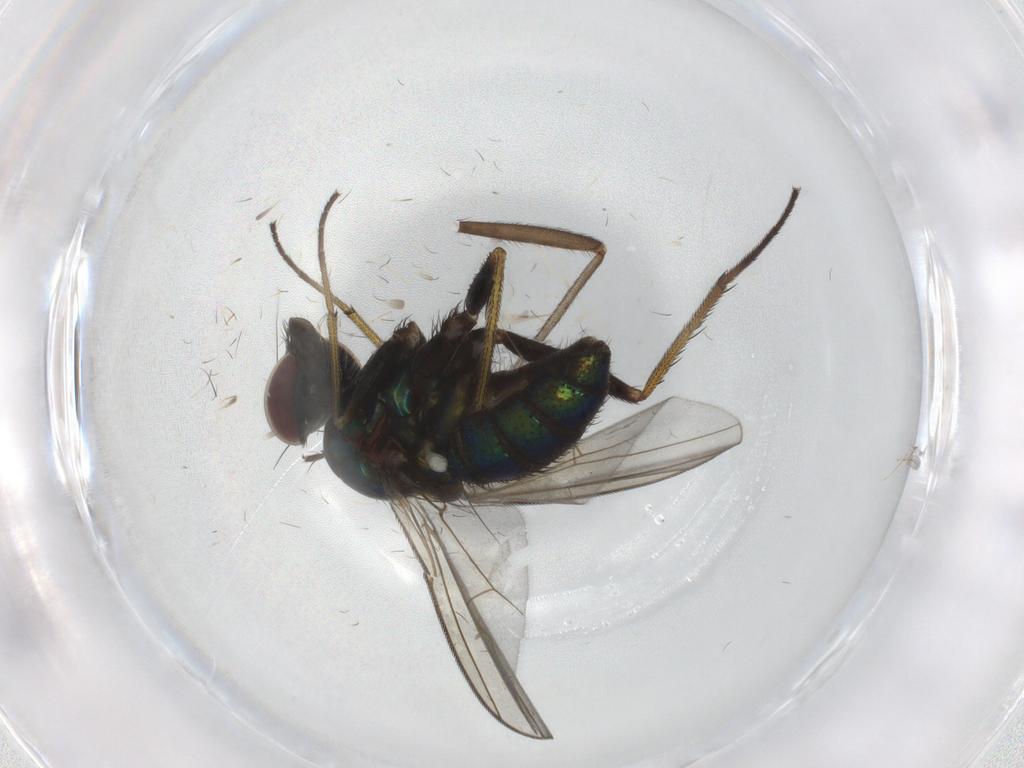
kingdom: Animalia
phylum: Arthropoda
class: Insecta
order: Diptera
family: Dolichopodidae
